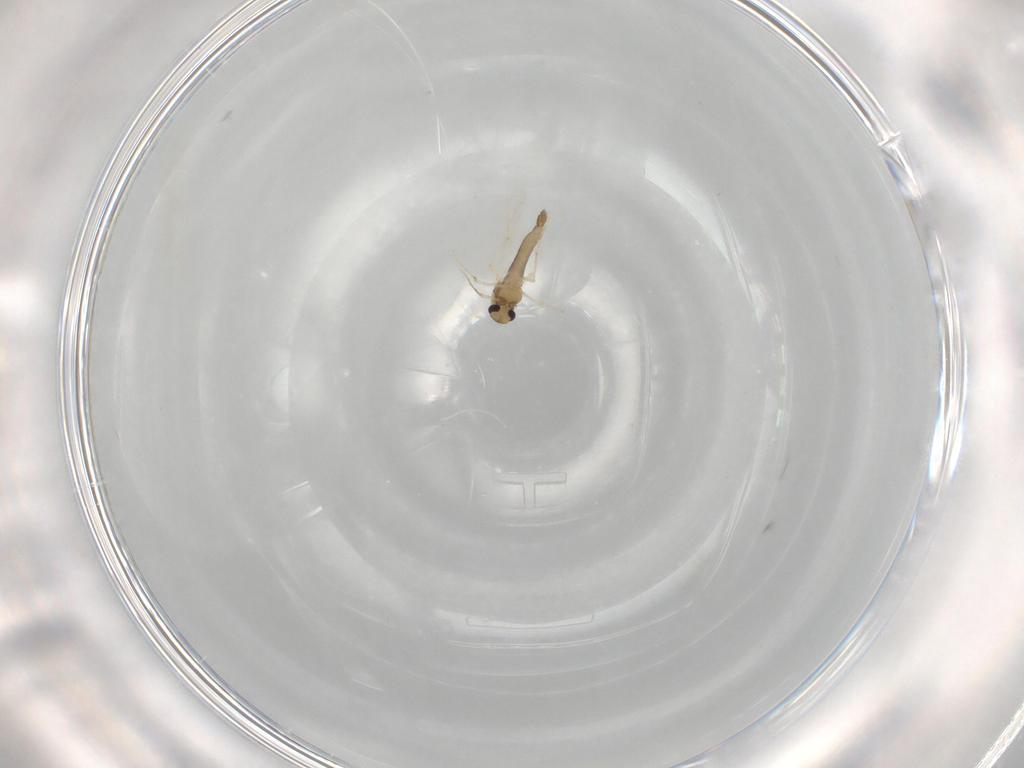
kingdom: Animalia
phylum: Arthropoda
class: Insecta
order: Diptera
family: Chironomidae
